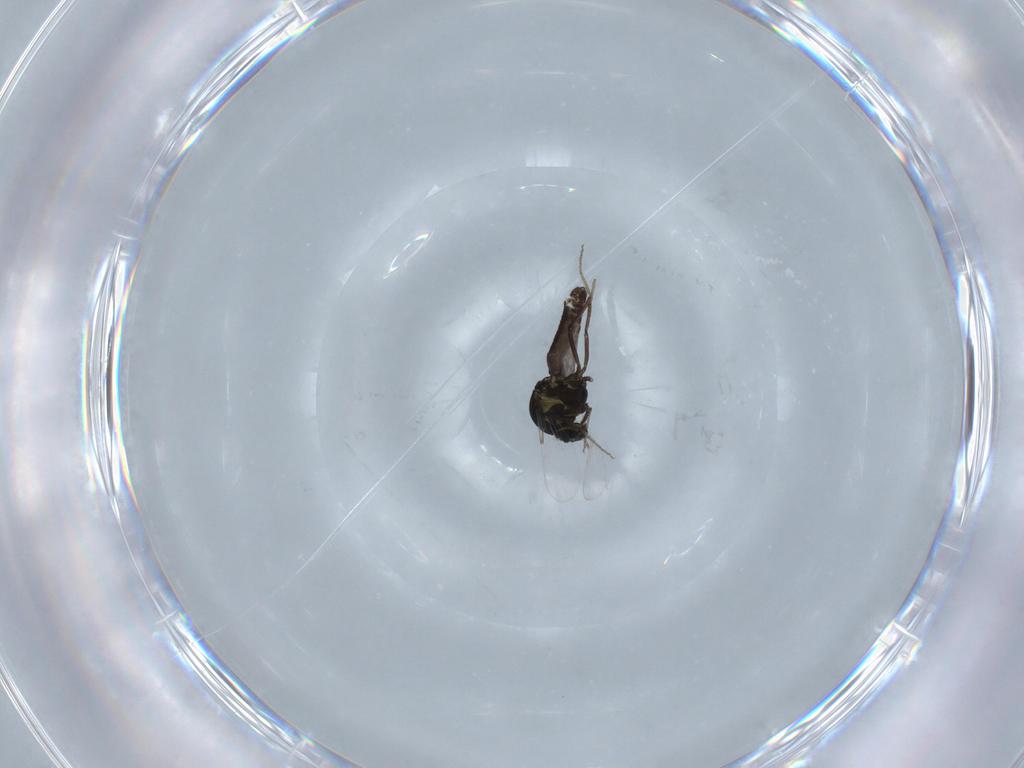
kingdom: Animalia
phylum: Arthropoda
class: Insecta
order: Diptera
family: Ceratopogonidae
